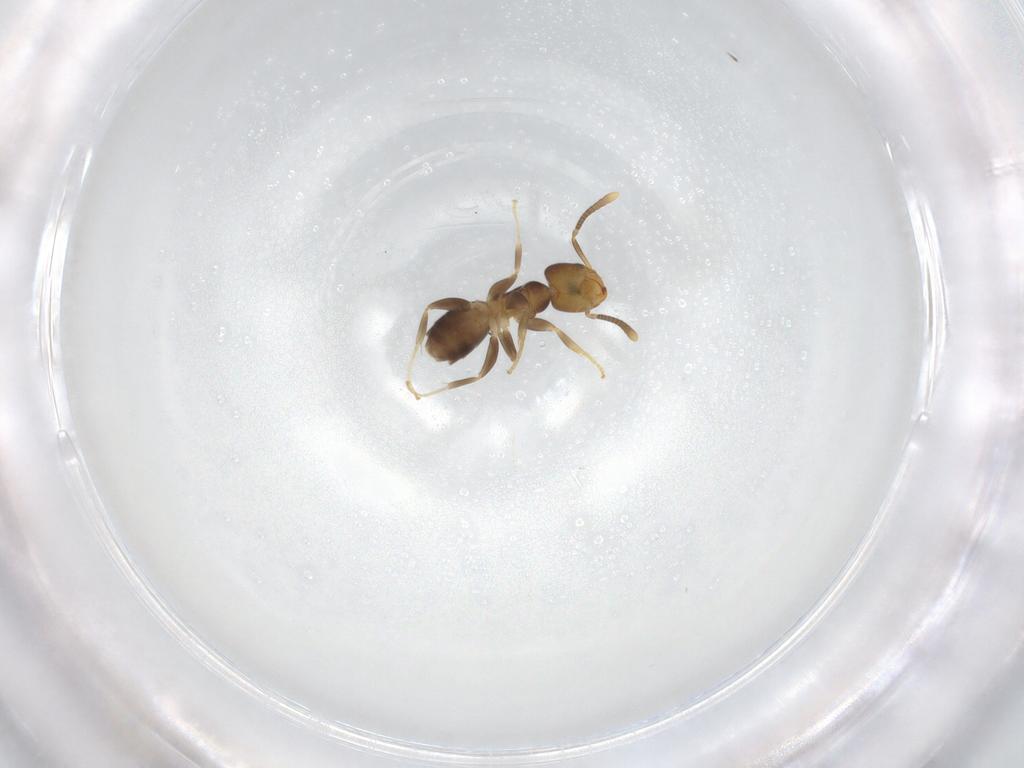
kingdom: Animalia
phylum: Arthropoda
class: Insecta
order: Hymenoptera
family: Formicidae
